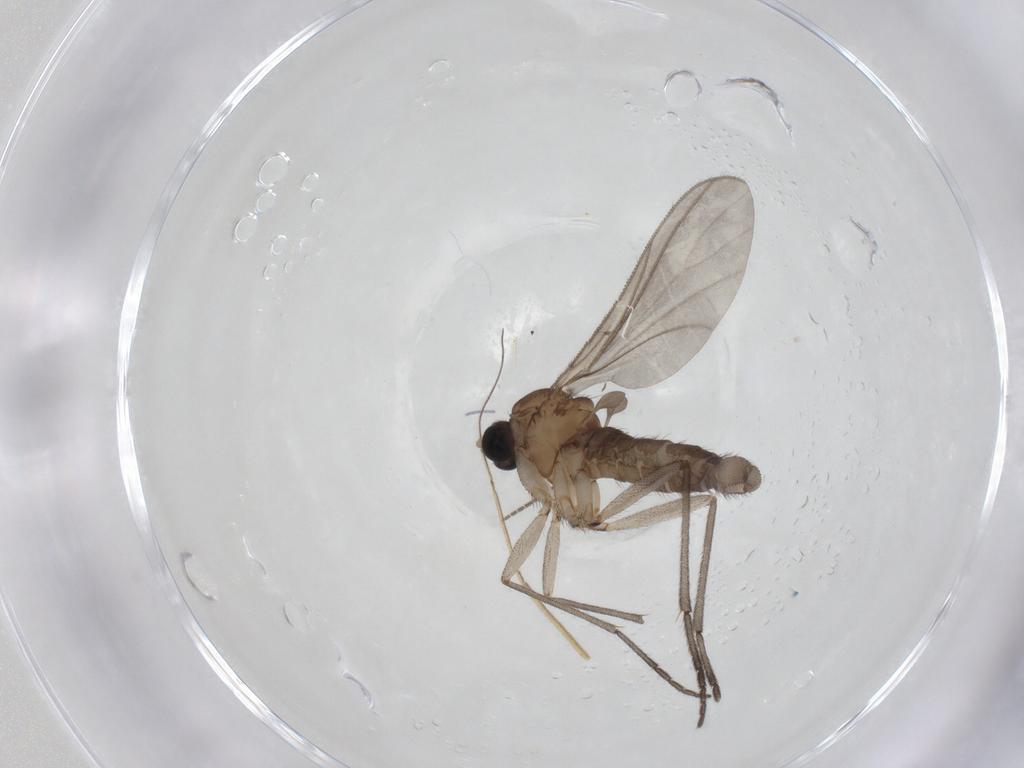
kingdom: Animalia
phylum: Arthropoda
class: Insecta
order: Diptera
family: Sciaridae
